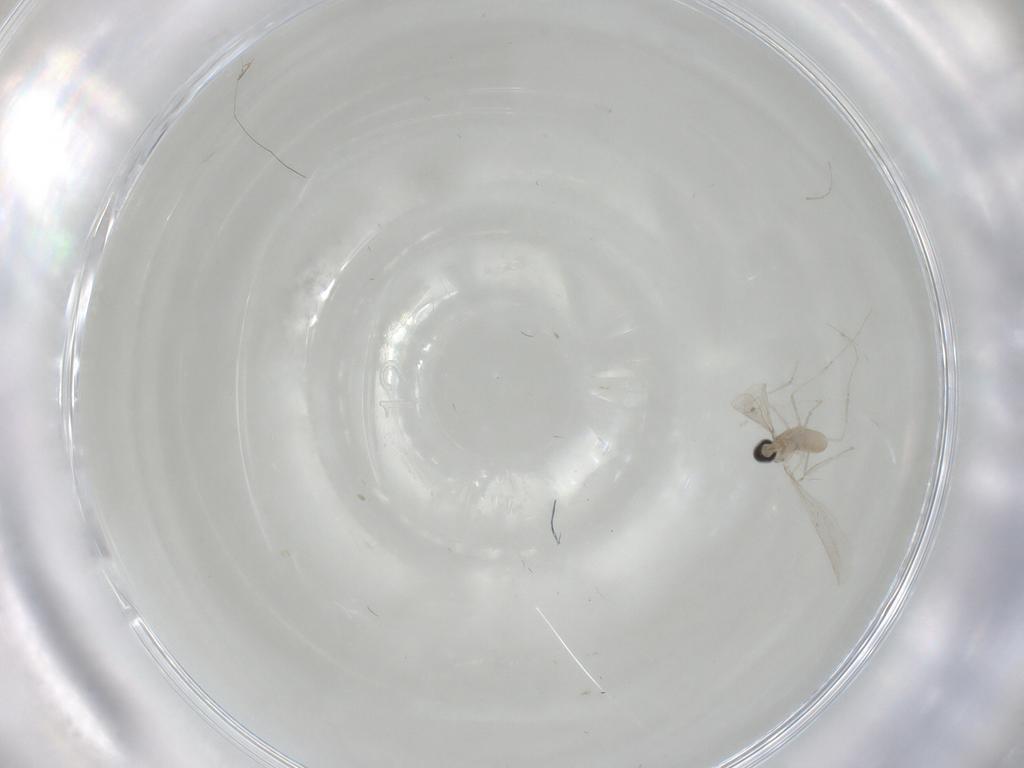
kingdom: Animalia
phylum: Arthropoda
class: Insecta
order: Diptera
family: Cecidomyiidae
